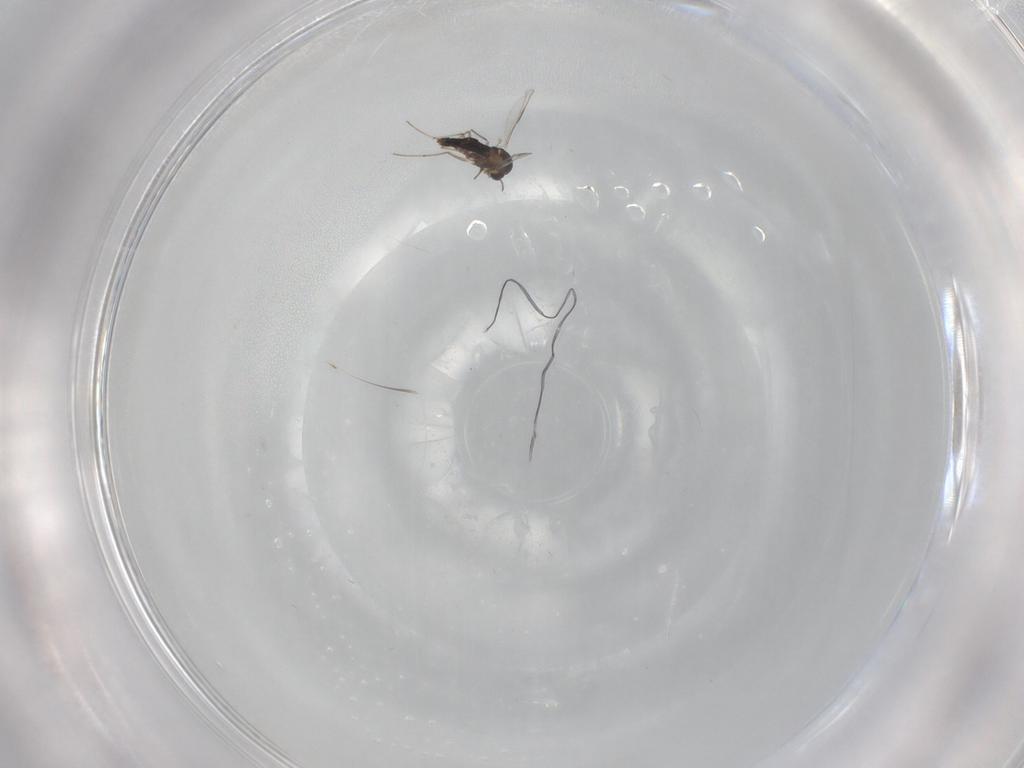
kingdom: Animalia
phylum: Arthropoda
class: Insecta
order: Diptera
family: Chironomidae
